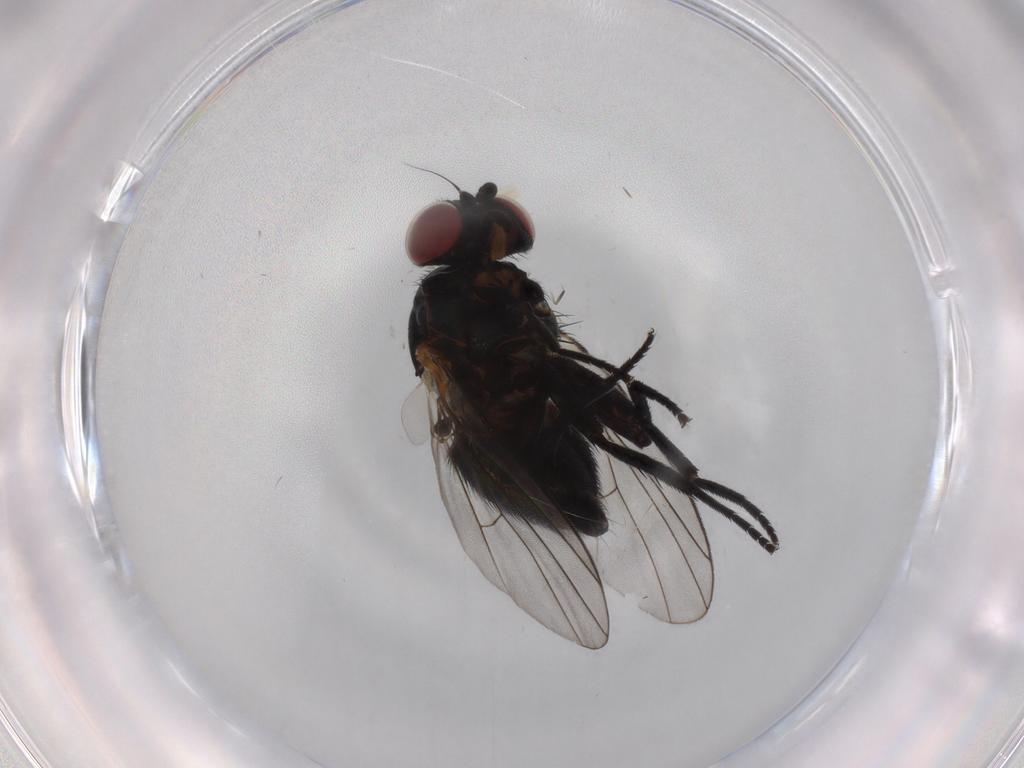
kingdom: Animalia
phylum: Arthropoda
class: Insecta
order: Diptera
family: Agromyzidae
